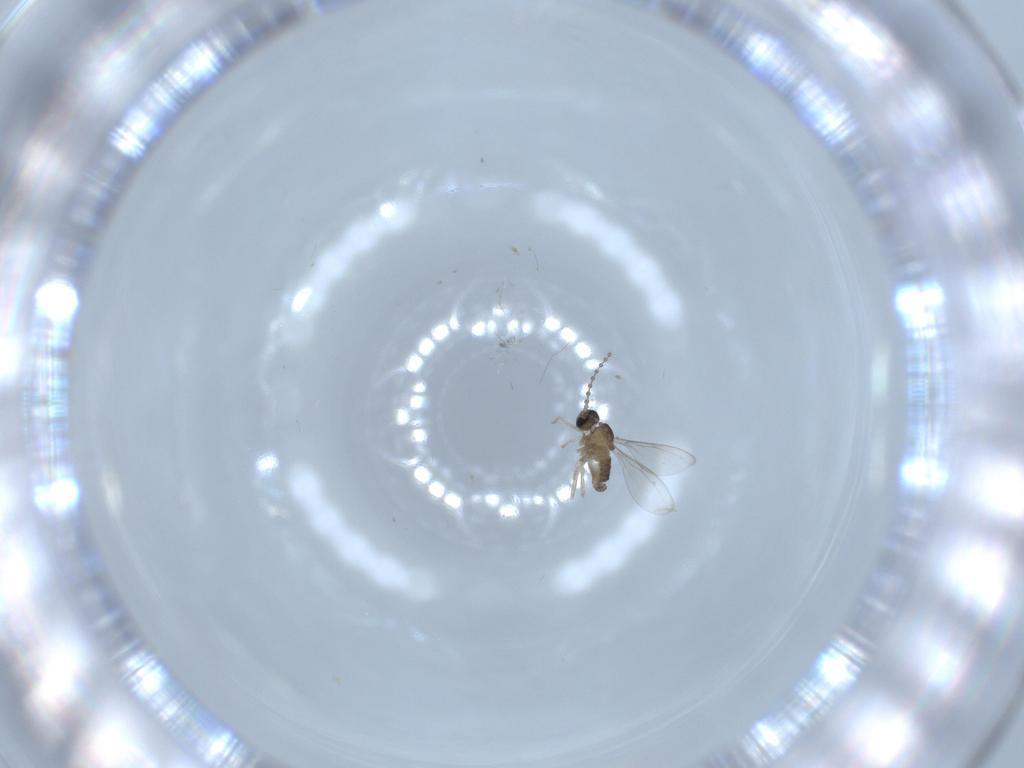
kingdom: Animalia
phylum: Arthropoda
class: Insecta
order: Diptera
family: Cecidomyiidae
